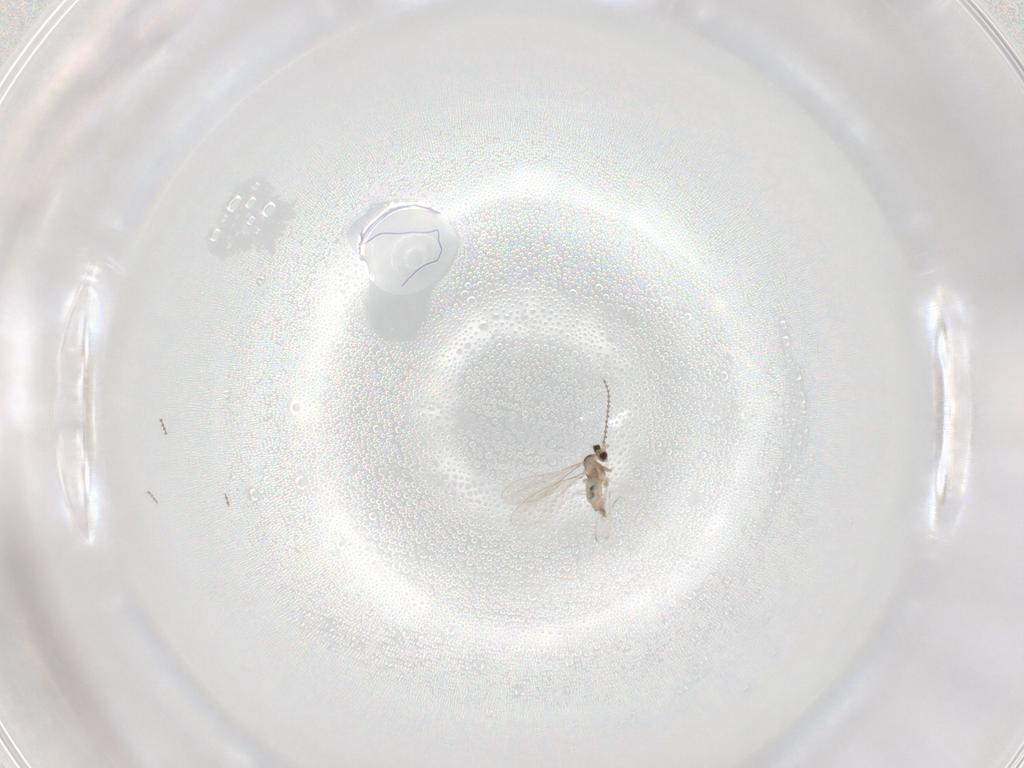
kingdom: Animalia
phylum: Arthropoda
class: Insecta
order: Diptera
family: Cecidomyiidae
